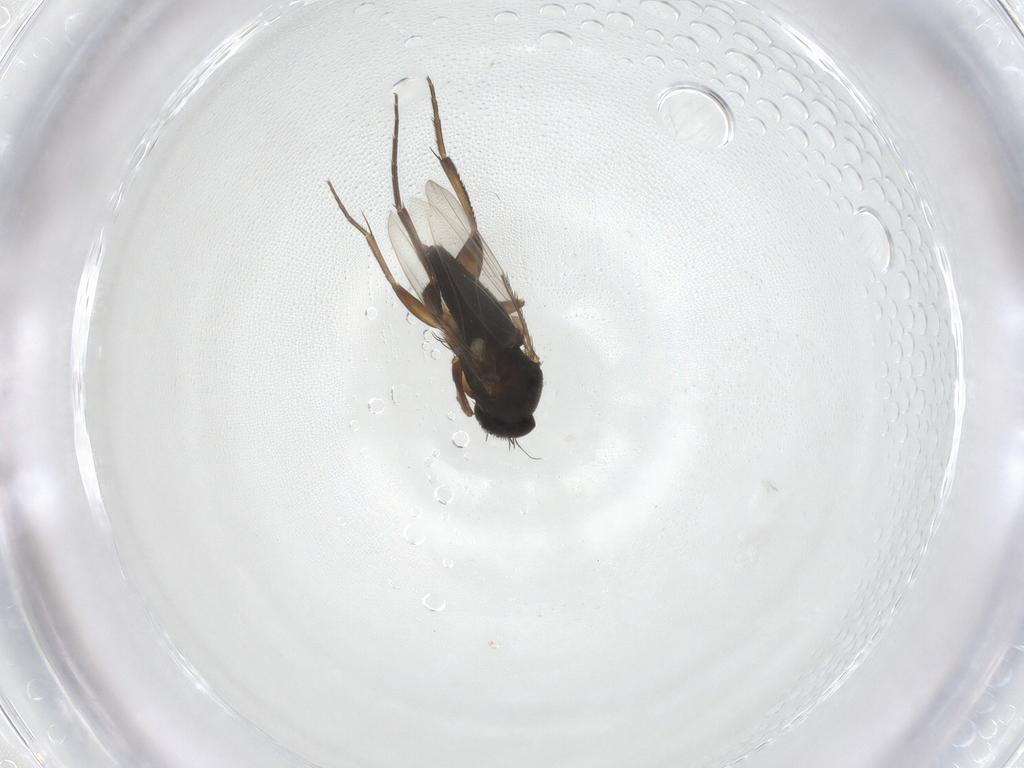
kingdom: Animalia
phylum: Arthropoda
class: Insecta
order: Diptera
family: Phoridae
